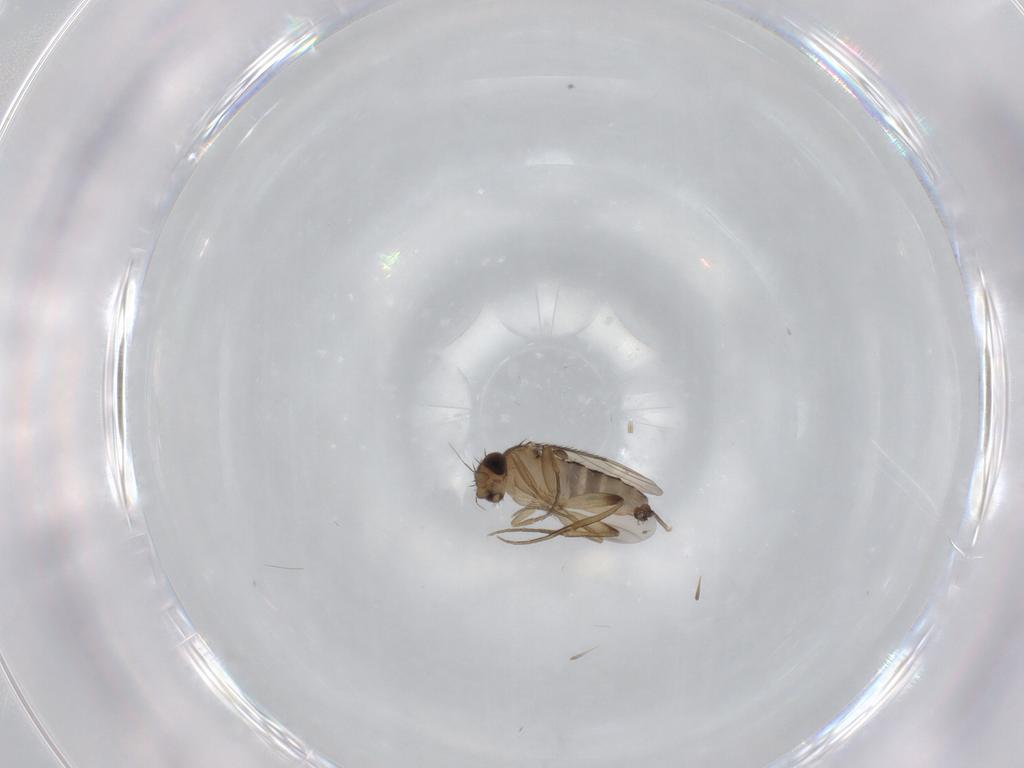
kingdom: Animalia
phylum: Arthropoda
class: Insecta
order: Diptera
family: Phoridae
